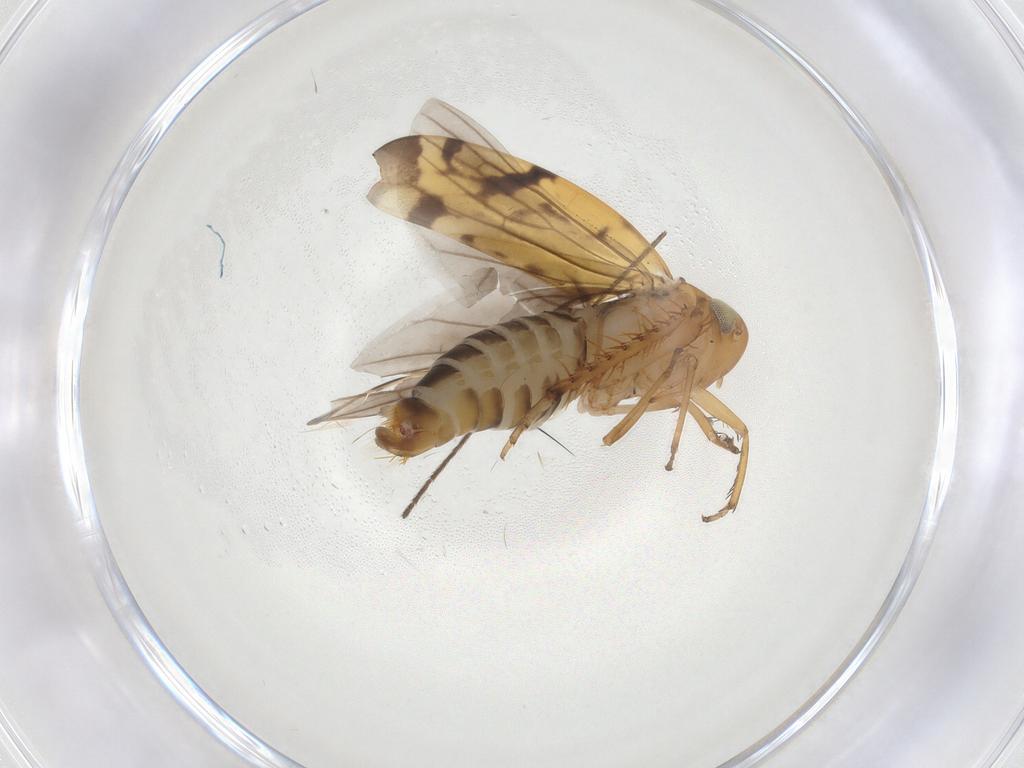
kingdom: Animalia
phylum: Arthropoda
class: Insecta
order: Hemiptera
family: Cicadellidae
